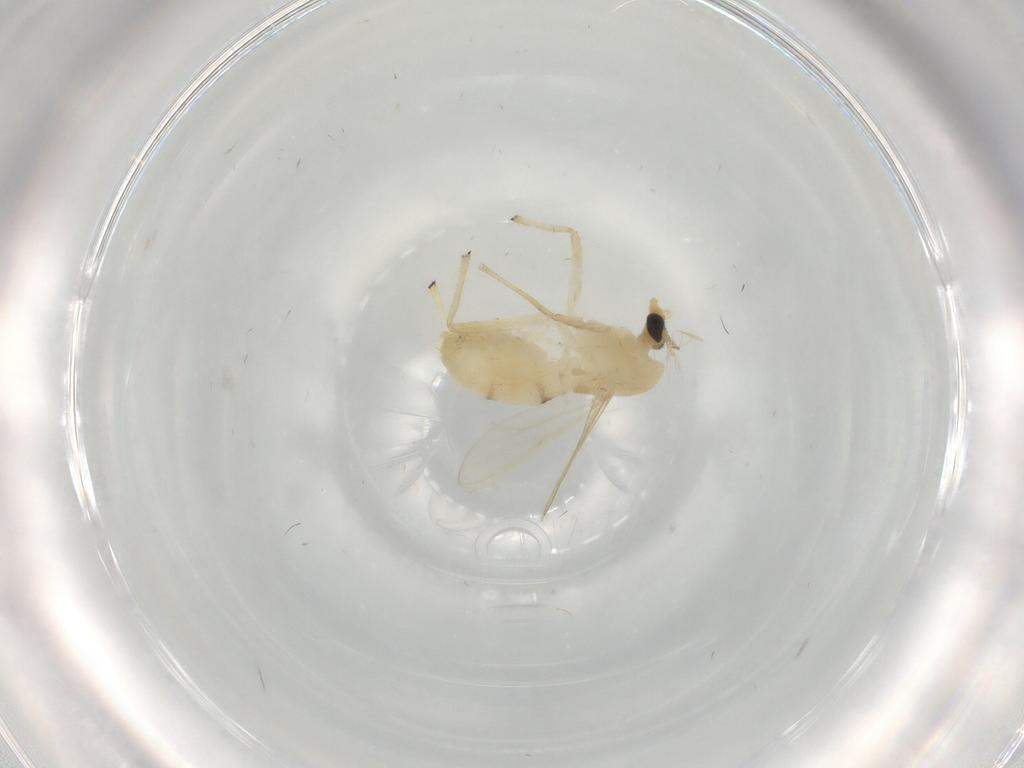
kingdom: Animalia
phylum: Arthropoda
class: Insecta
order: Diptera
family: Chironomidae
